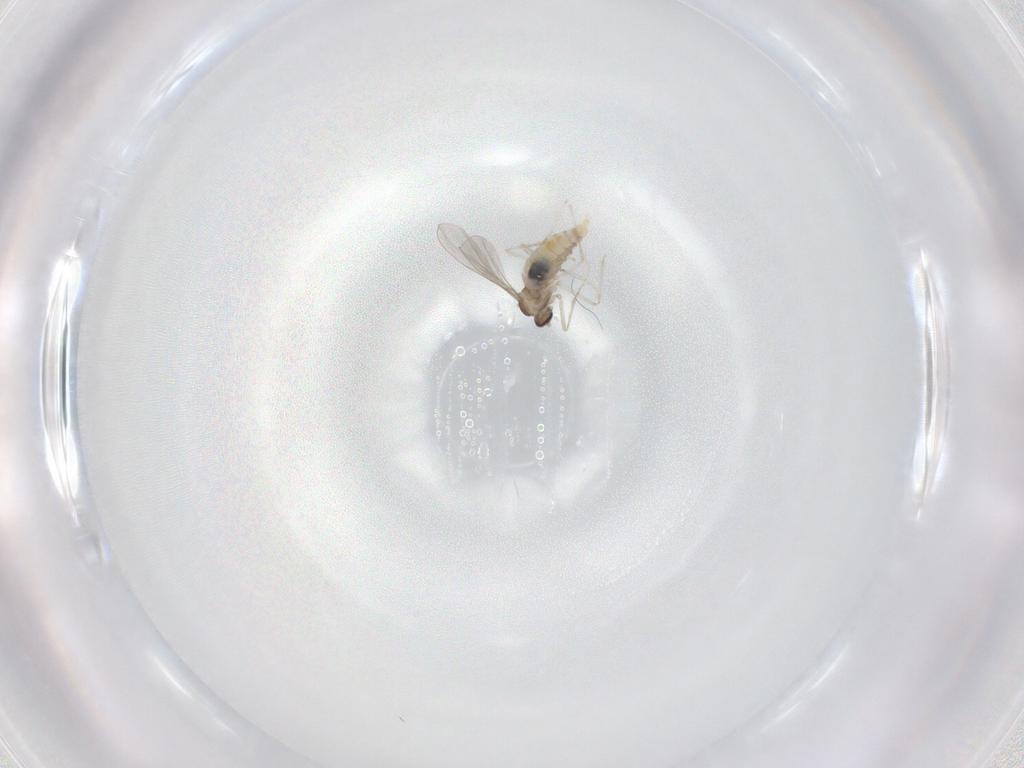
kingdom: Animalia
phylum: Arthropoda
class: Insecta
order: Diptera
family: Cecidomyiidae
